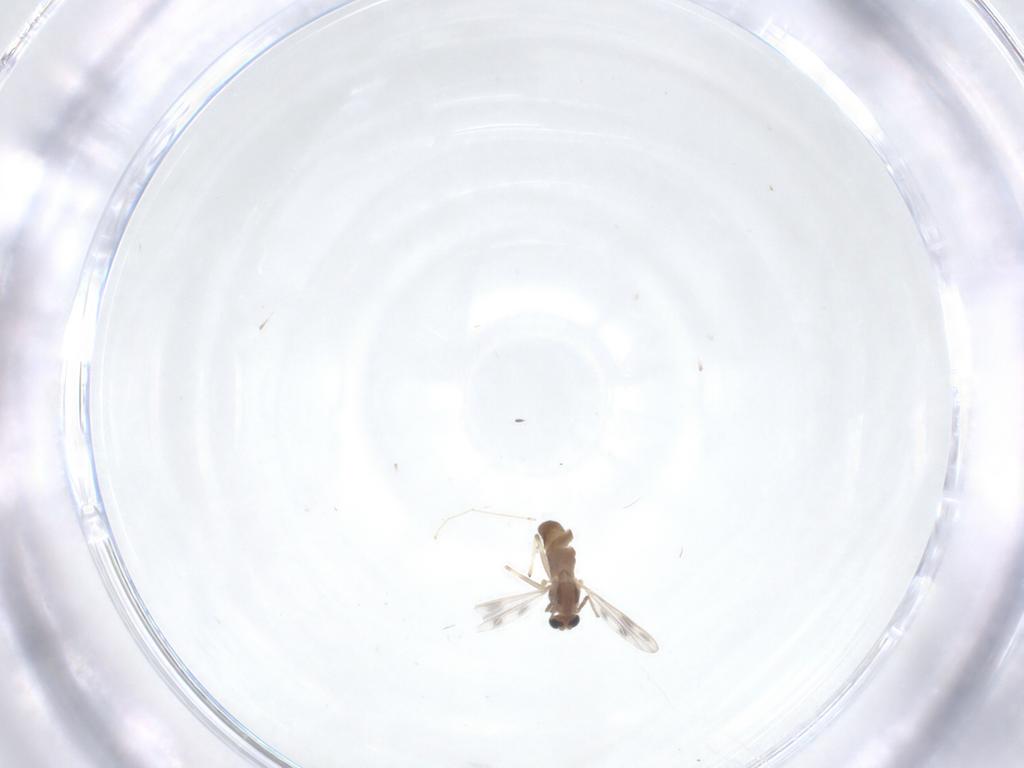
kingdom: Animalia
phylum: Arthropoda
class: Insecta
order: Diptera
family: Chironomidae
